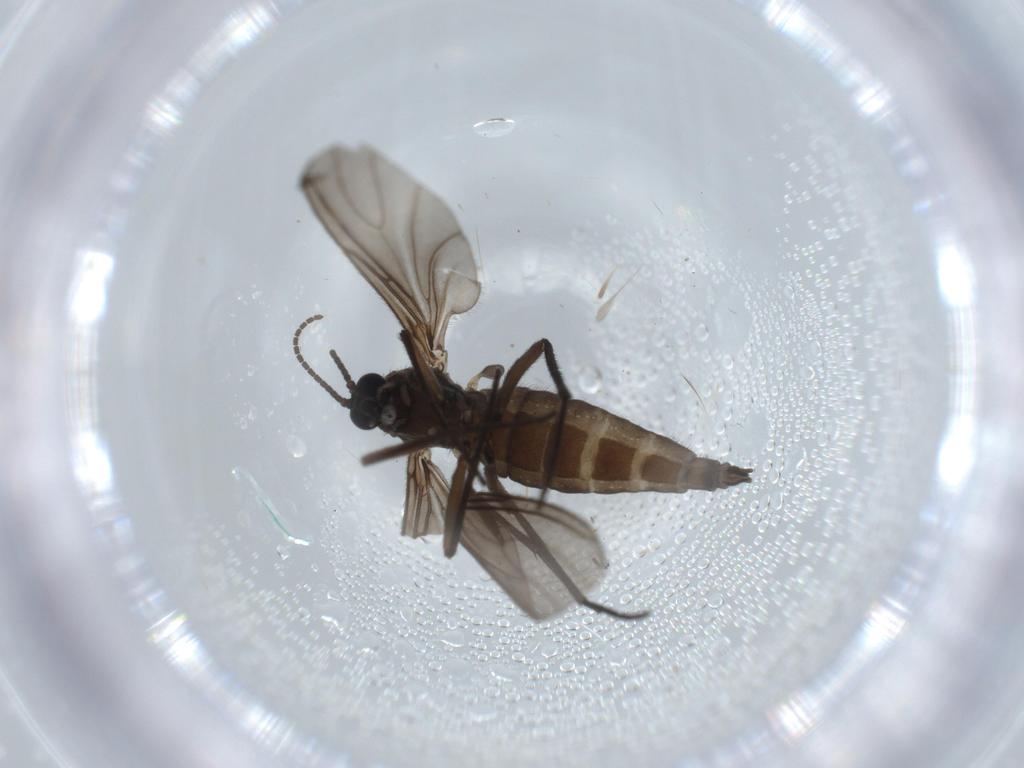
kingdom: Animalia
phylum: Arthropoda
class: Insecta
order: Diptera
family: Sciaridae
